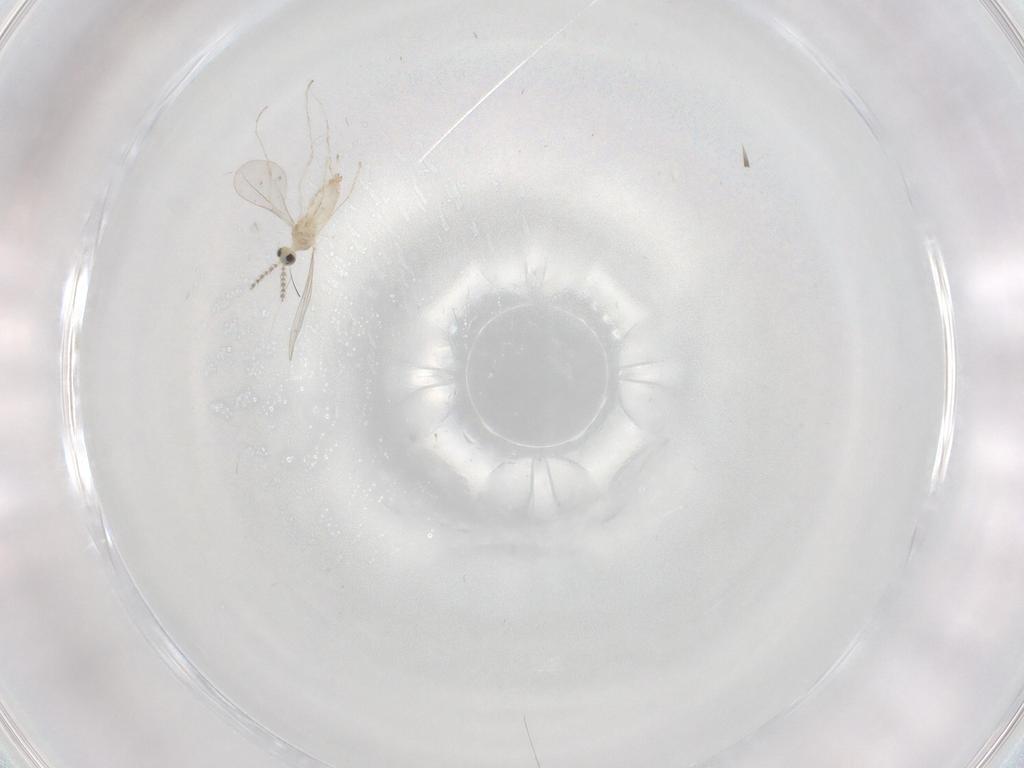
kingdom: Animalia
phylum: Arthropoda
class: Insecta
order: Diptera
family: Cecidomyiidae
